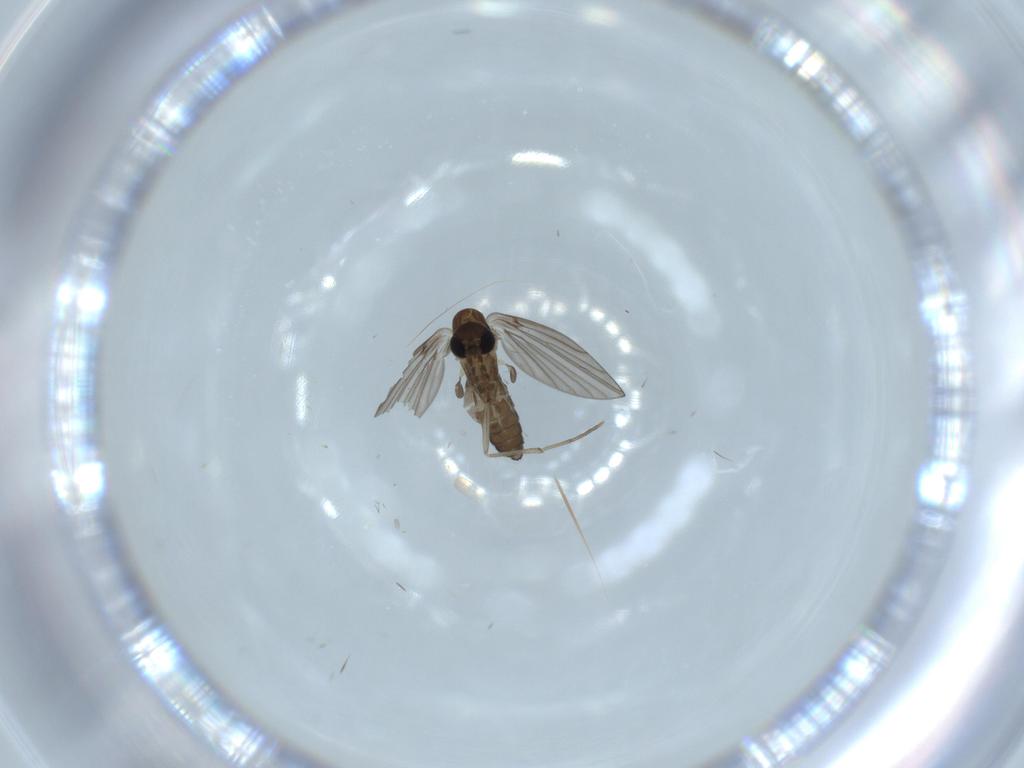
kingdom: Animalia
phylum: Arthropoda
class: Insecta
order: Diptera
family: Psychodidae
